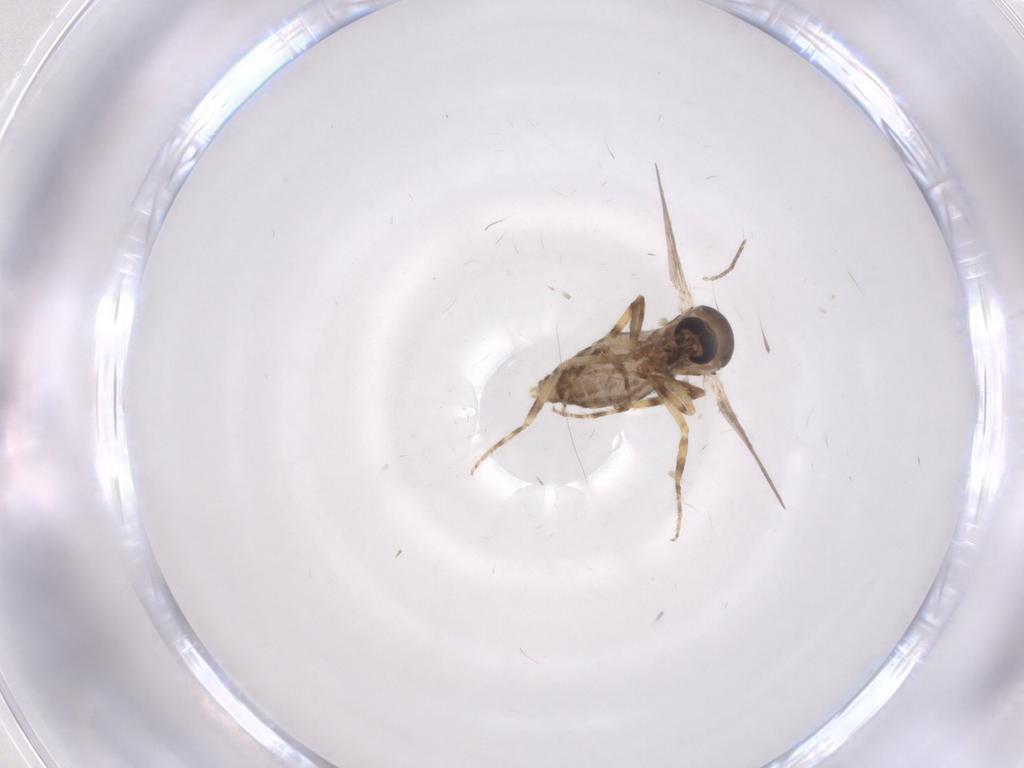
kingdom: Animalia
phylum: Arthropoda
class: Insecta
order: Diptera
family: Ceratopogonidae
